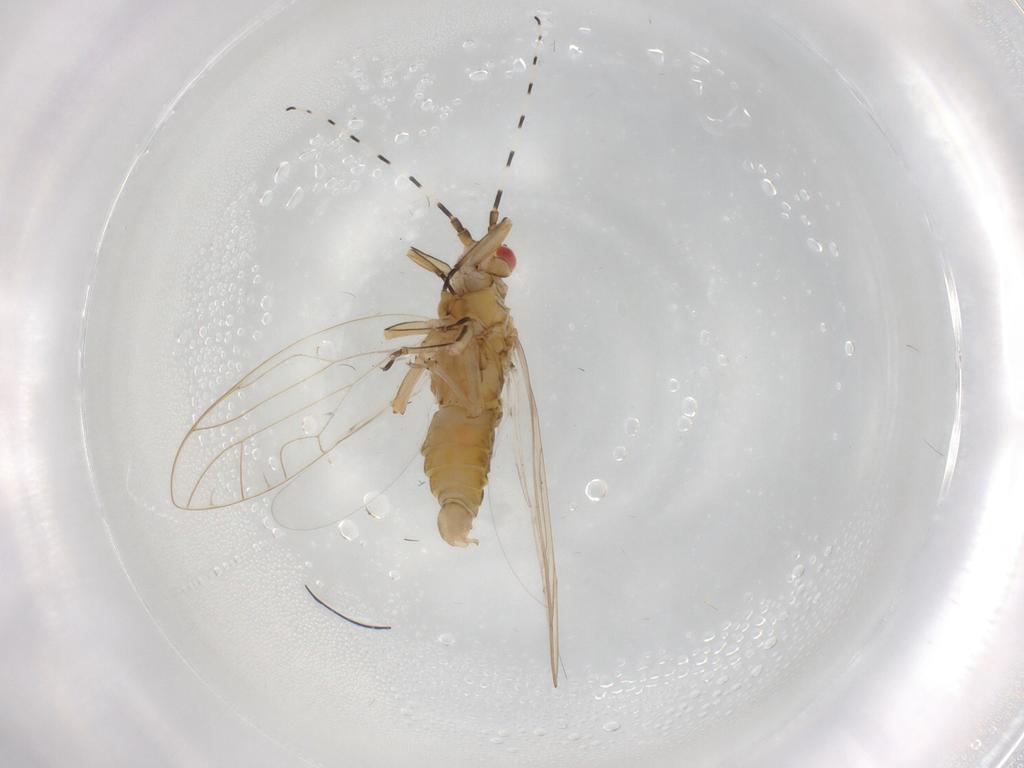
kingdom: Animalia
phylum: Arthropoda
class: Insecta
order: Hemiptera
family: Carsidaridae
